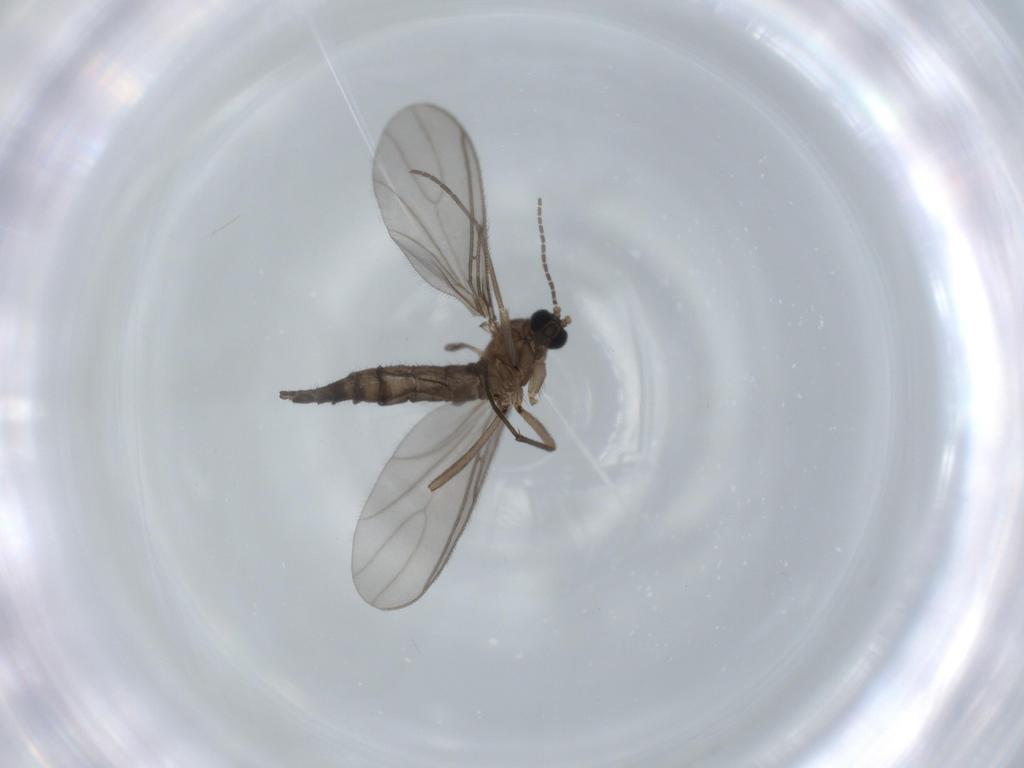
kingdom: Animalia
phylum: Arthropoda
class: Insecta
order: Diptera
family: Sciaridae
